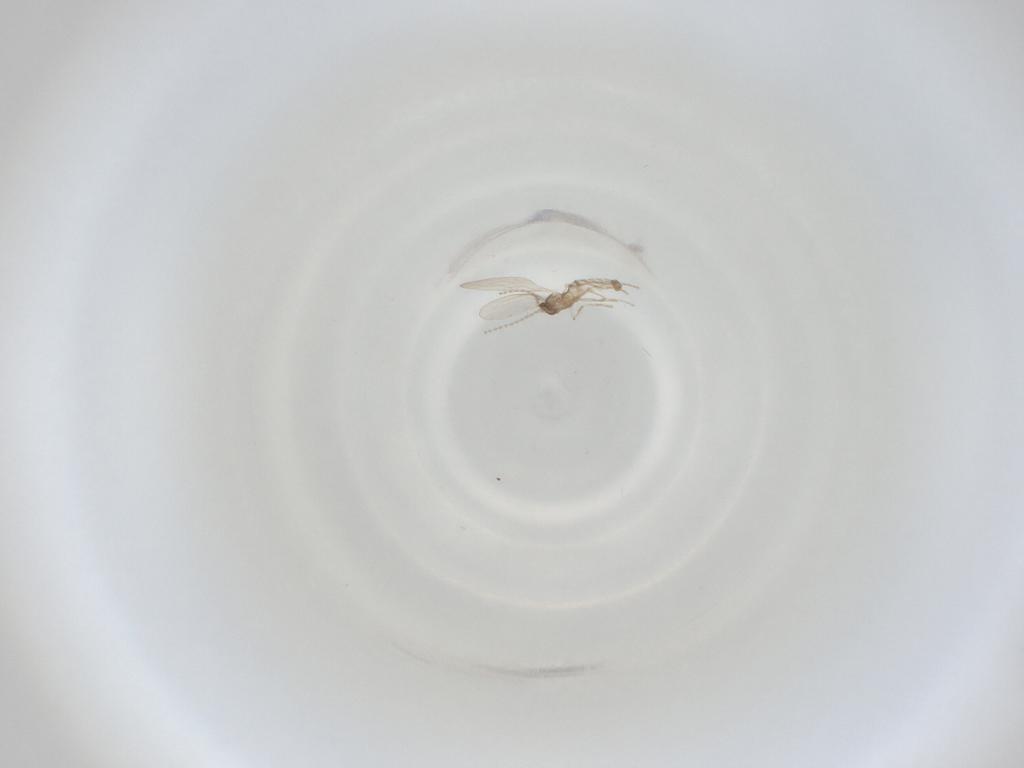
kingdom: Animalia
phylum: Arthropoda
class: Insecta
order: Diptera
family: Cecidomyiidae
